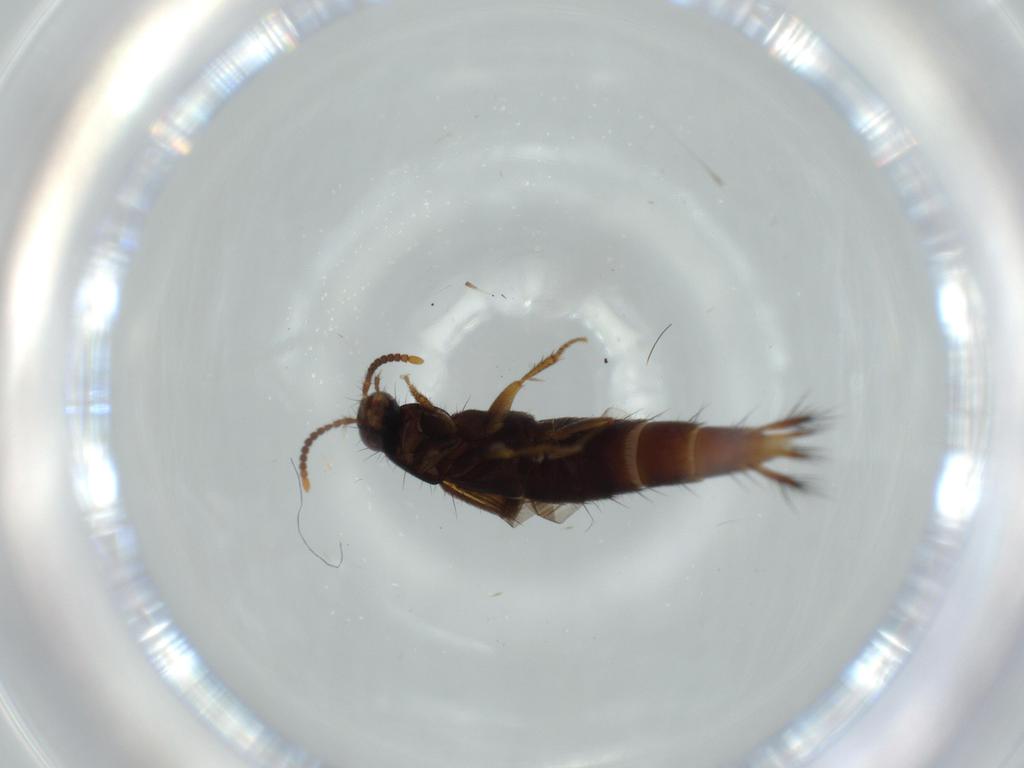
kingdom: Animalia
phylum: Arthropoda
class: Insecta
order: Coleoptera
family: Staphylinidae
